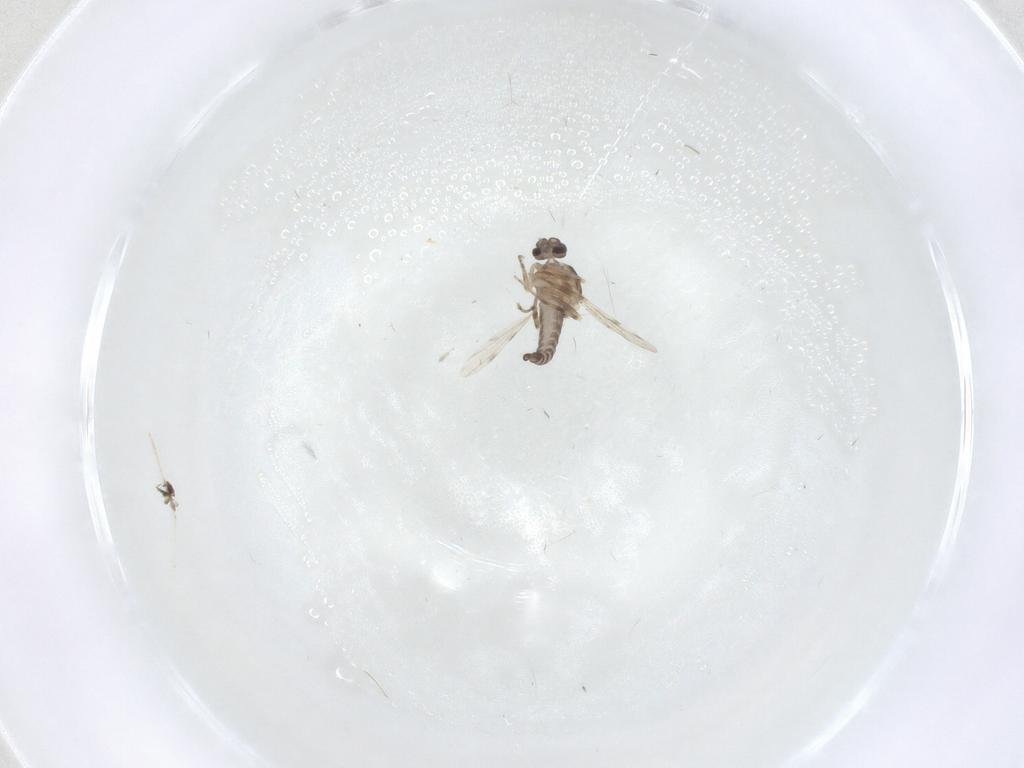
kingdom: Animalia
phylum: Arthropoda
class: Insecta
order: Diptera
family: Ceratopogonidae
